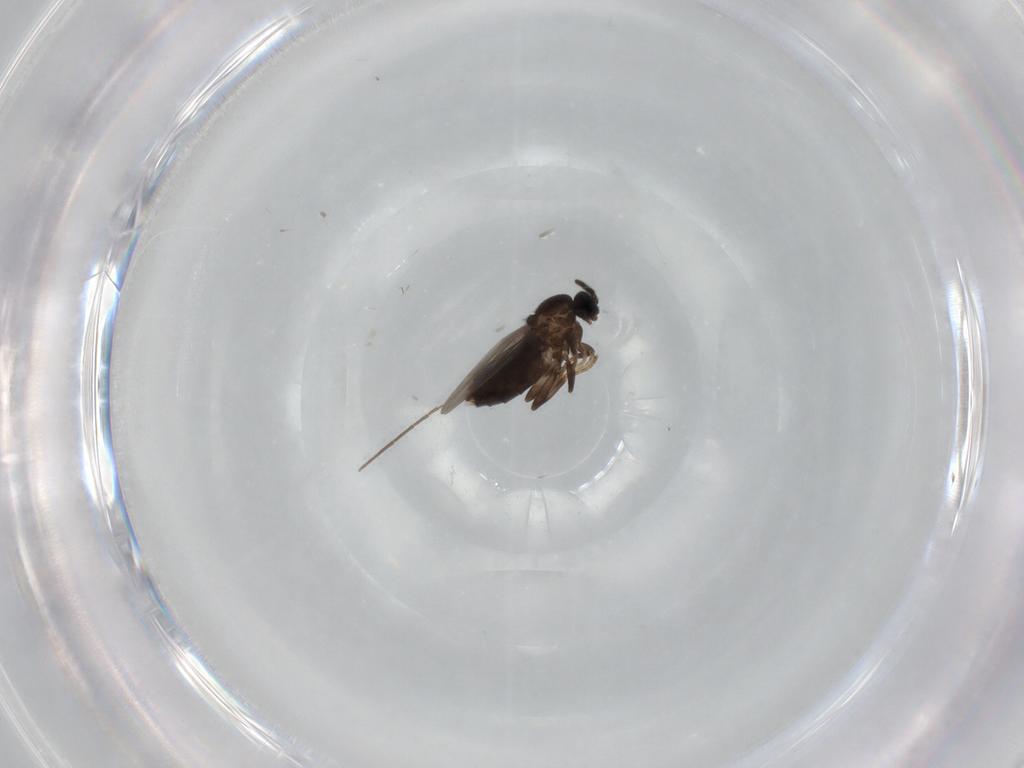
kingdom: Animalia
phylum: Arthropoda
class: Insecta
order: Diptera
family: Scatopsidae
